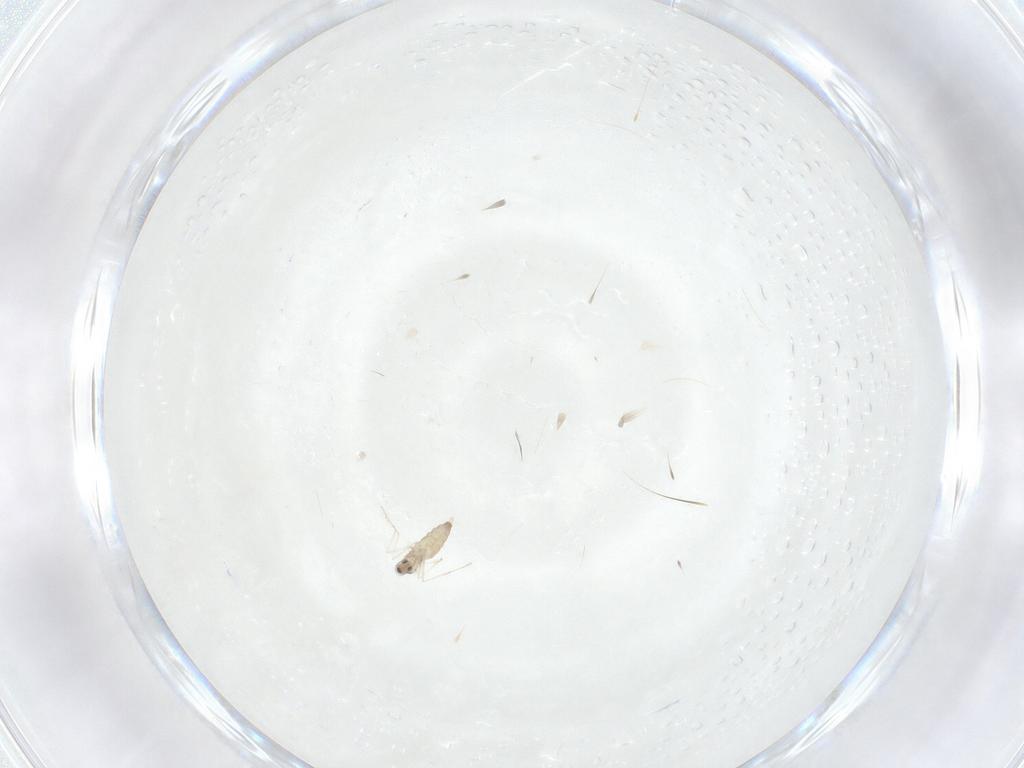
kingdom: Animalia
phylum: Arthropoda
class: Insecta
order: Diptera
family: Cecidomyiidae
